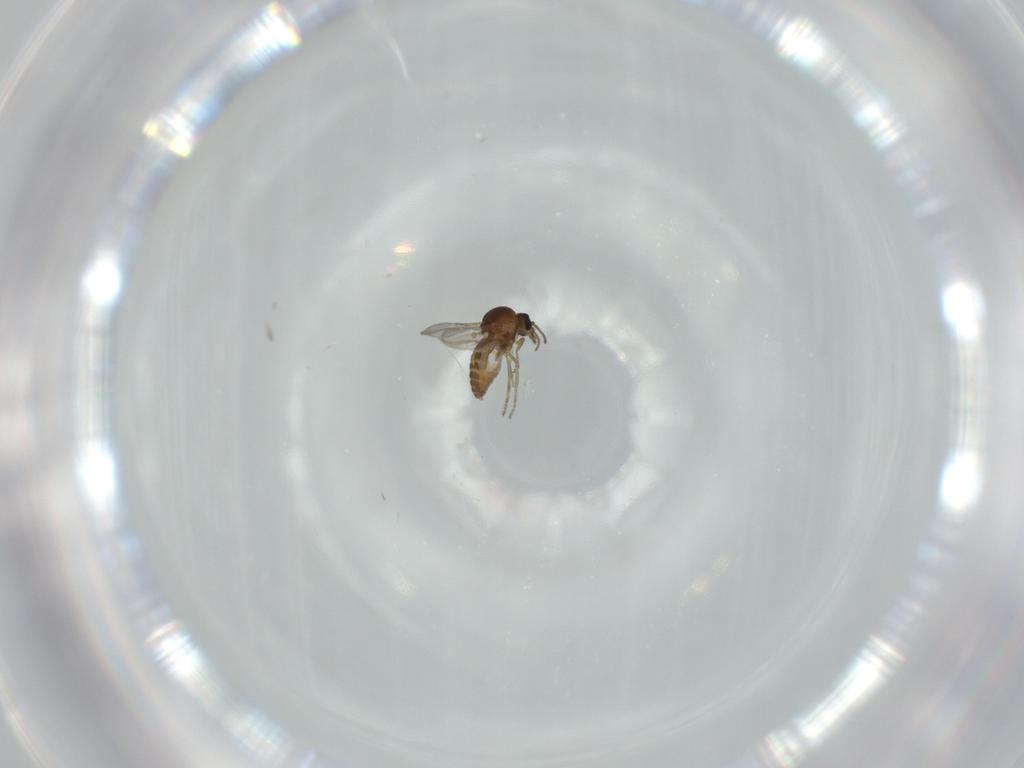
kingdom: Animalia
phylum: Arthropoda
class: Insecta
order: Diptera
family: Ceratopogonidae
